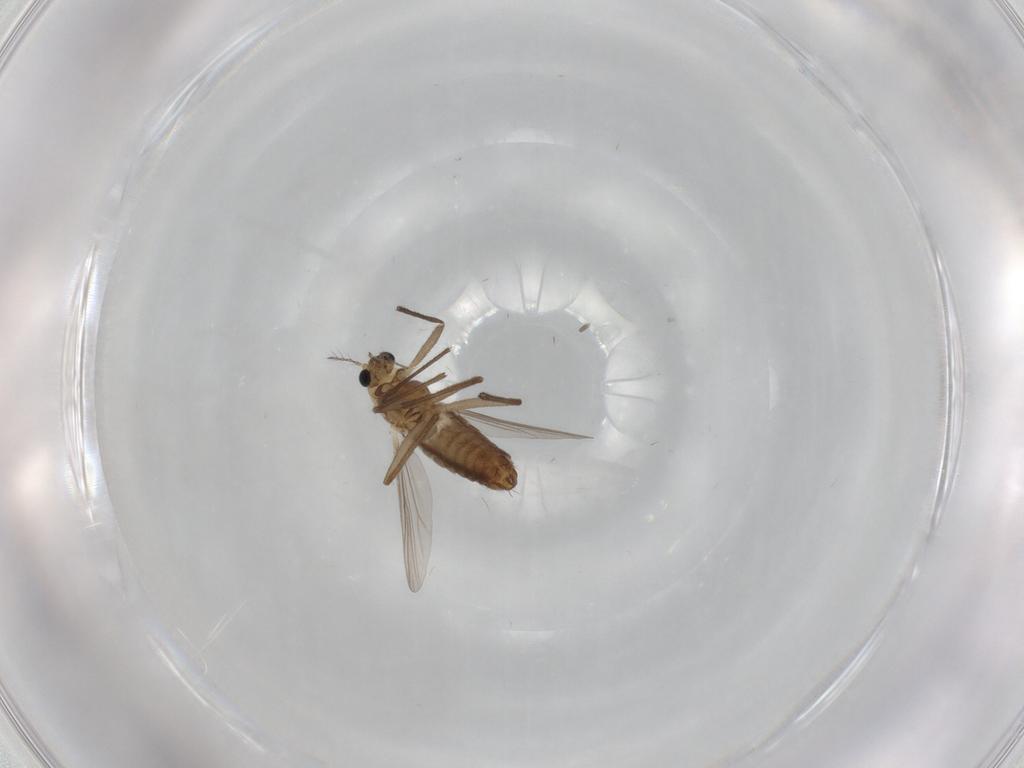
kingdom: Animalia
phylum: Arthropoda
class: Insecta
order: Diptera
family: Chironomidae
